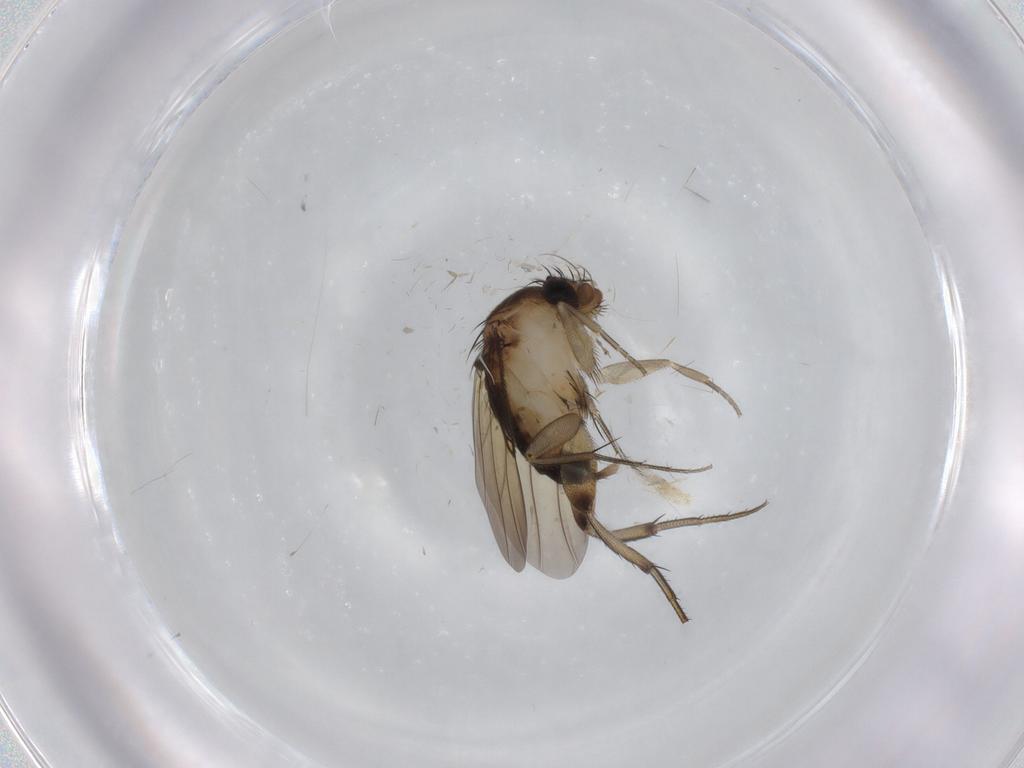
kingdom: Animalia
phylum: Arthropoda
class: Insecta
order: Diptera
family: Phoridae
